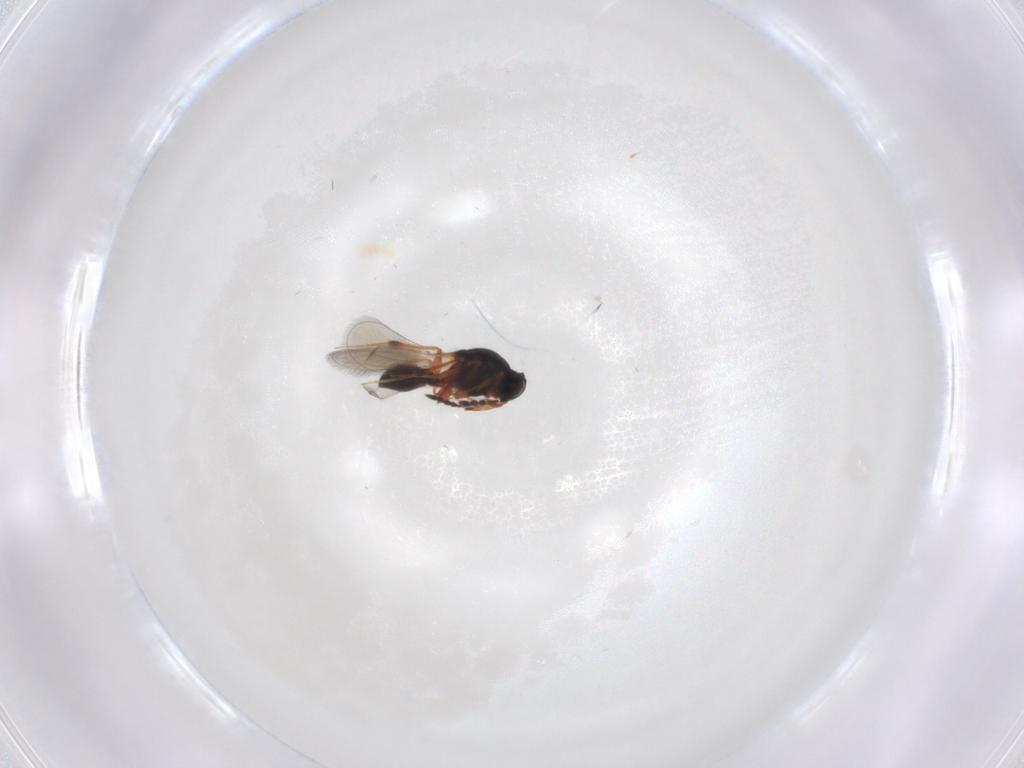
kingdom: Animalia
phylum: Arthropoda
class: Insecta
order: Hymenoptera
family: Platygastridae
